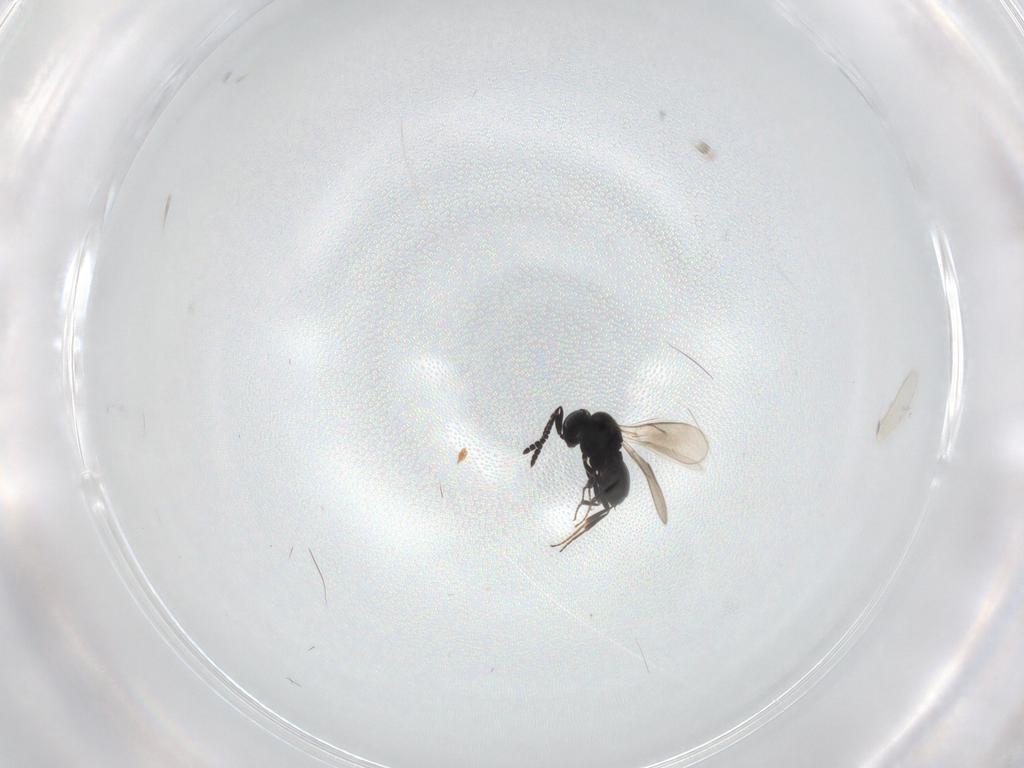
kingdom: Animalia
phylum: Arthropoda
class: Insecta
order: Hymenoptera
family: Scelionidae
